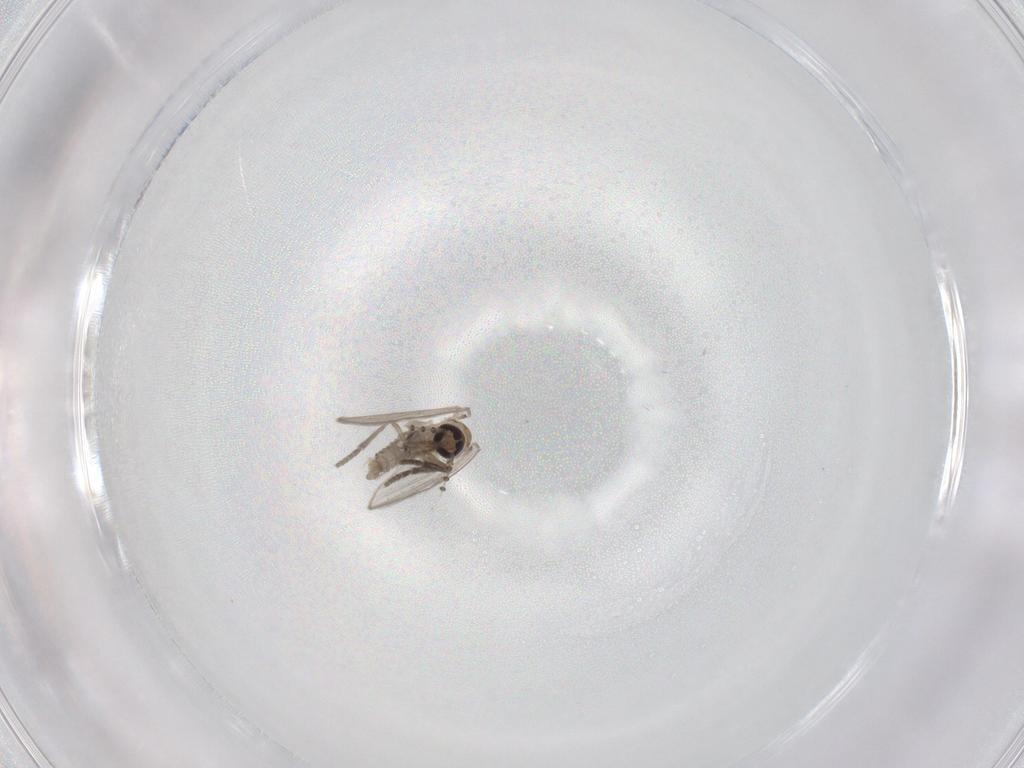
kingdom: Animalia
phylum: Arthropoda
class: Insecta
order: Diptera
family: Psychodidae
